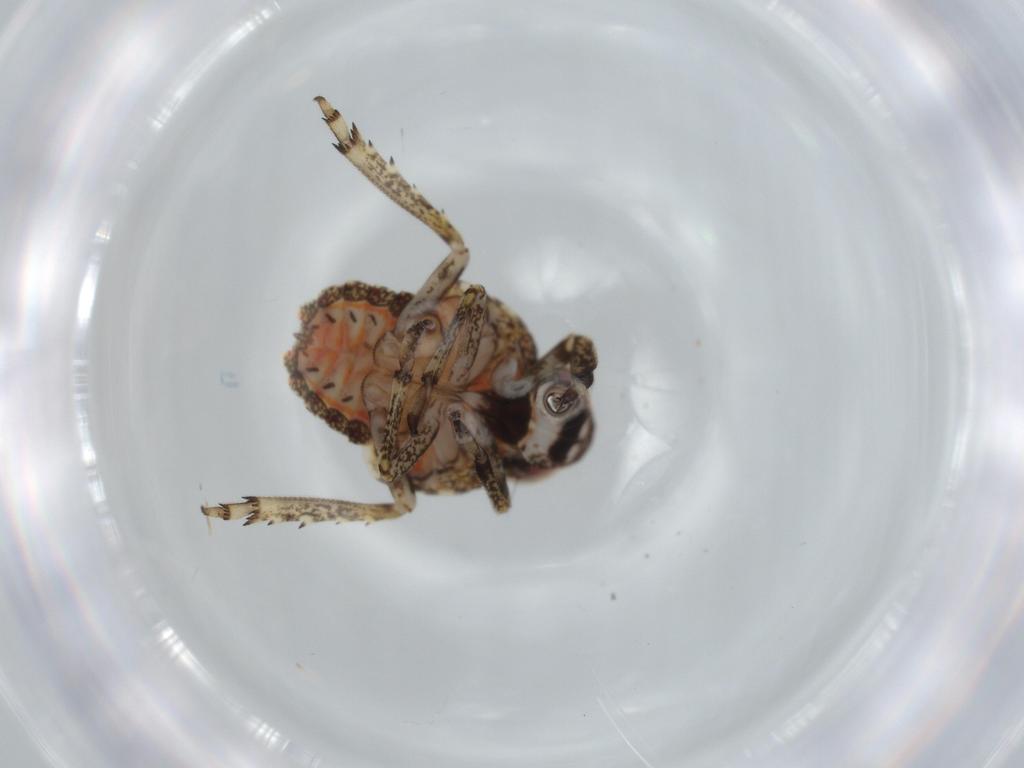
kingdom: Animalia
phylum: Arthropoda
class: Insecta
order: Hemiptera
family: Issidae
